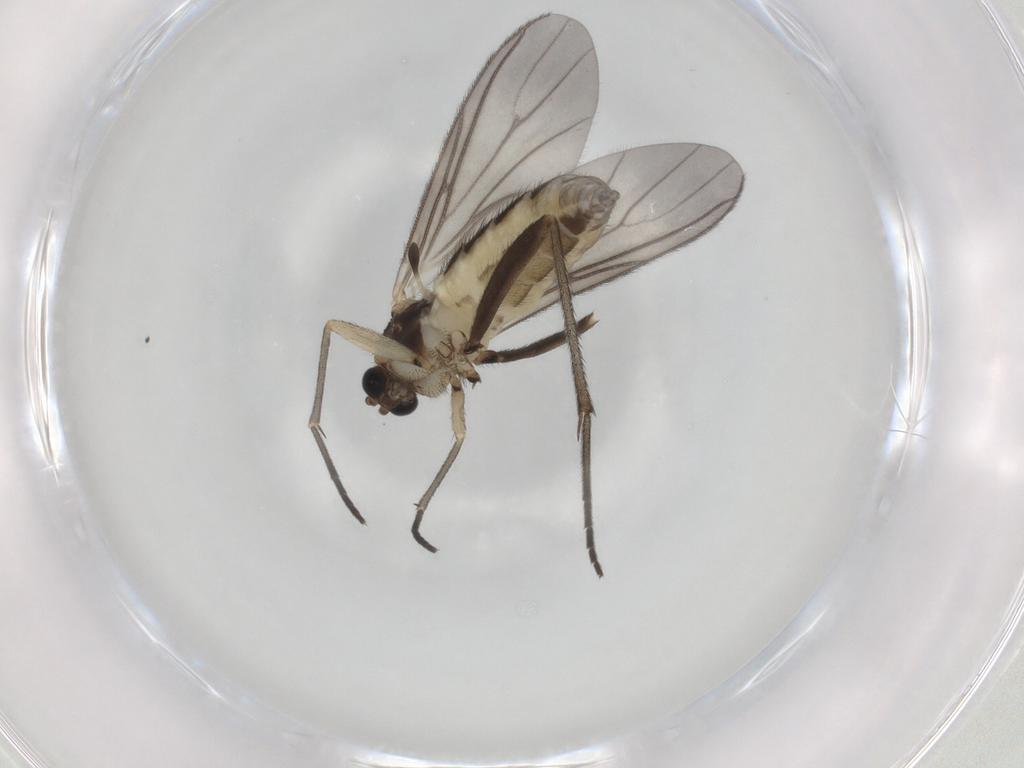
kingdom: Animalia
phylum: Arthropoda
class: Insecta
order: Diptera
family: Sciaridae
